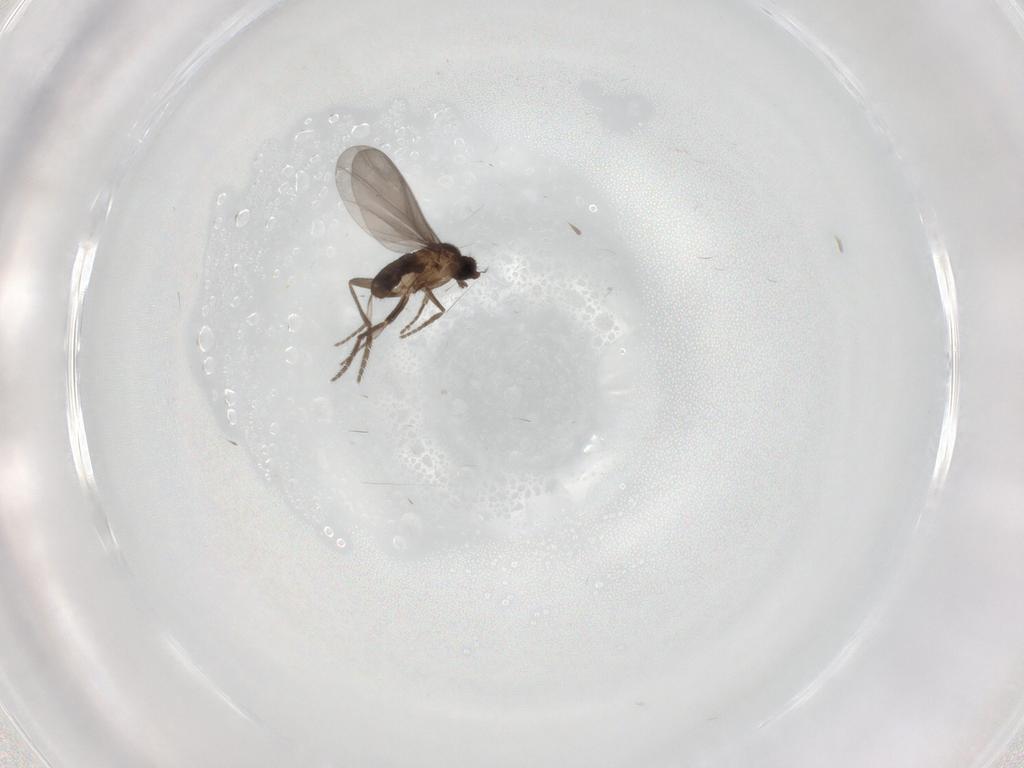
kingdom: Animalia
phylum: Arthropoda
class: Insecta
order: Diptera
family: Phoridae
